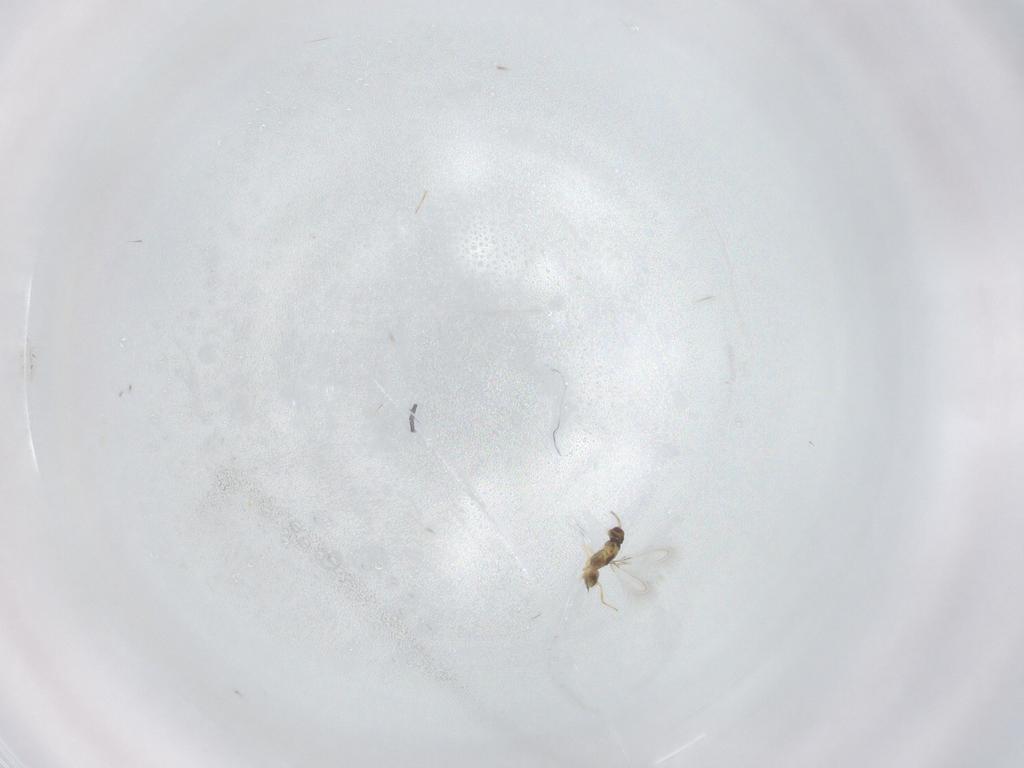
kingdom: Animalia
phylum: Arthropoda
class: Insecta
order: Hymenoptera
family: Mymaridae
